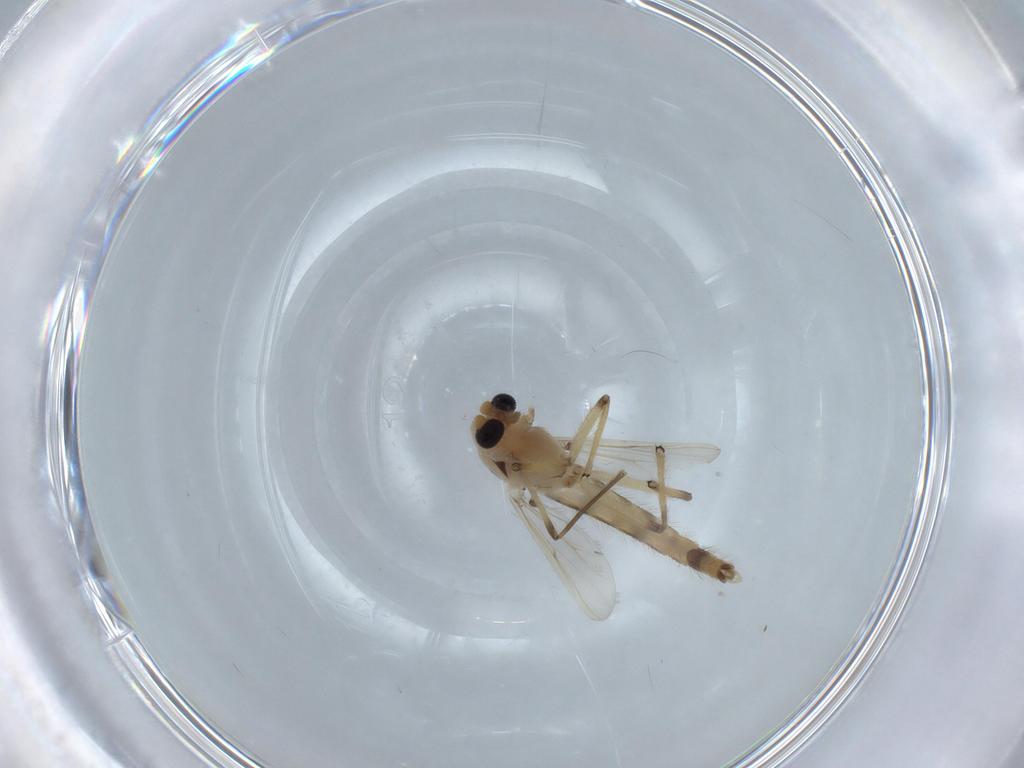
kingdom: Animalia
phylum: Arthropoda
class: Insecta
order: Diptera
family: Chironomidae
